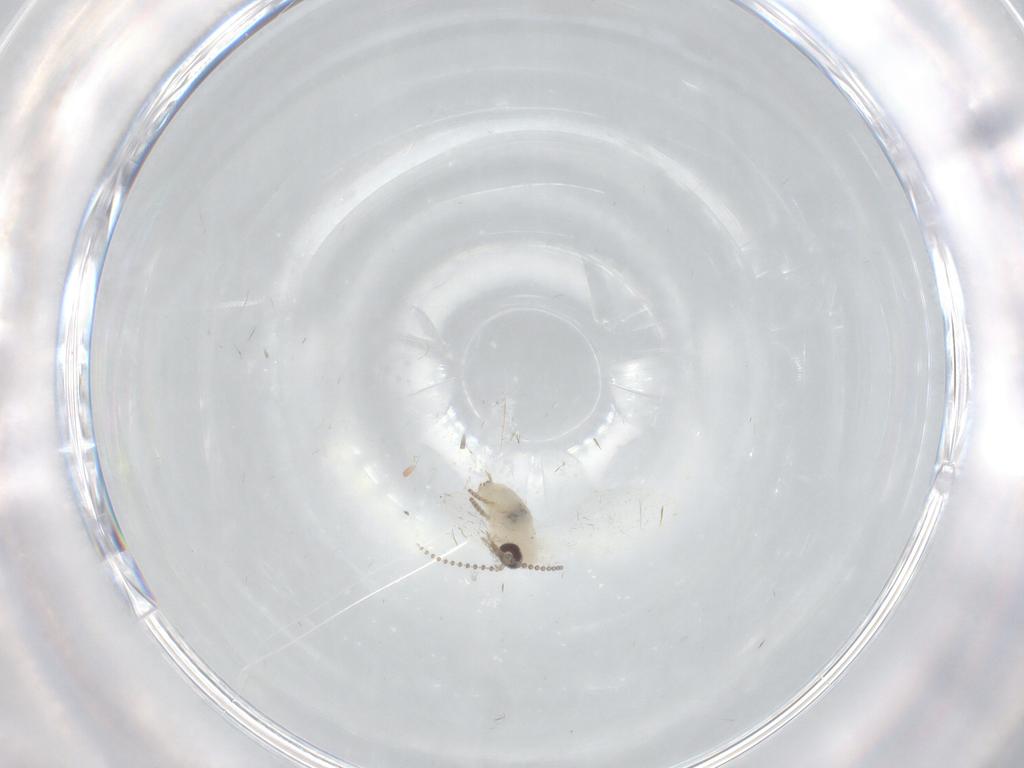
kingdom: Animalia
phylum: Arthropoda
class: Insecta
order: Diptera
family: Psychodidae
